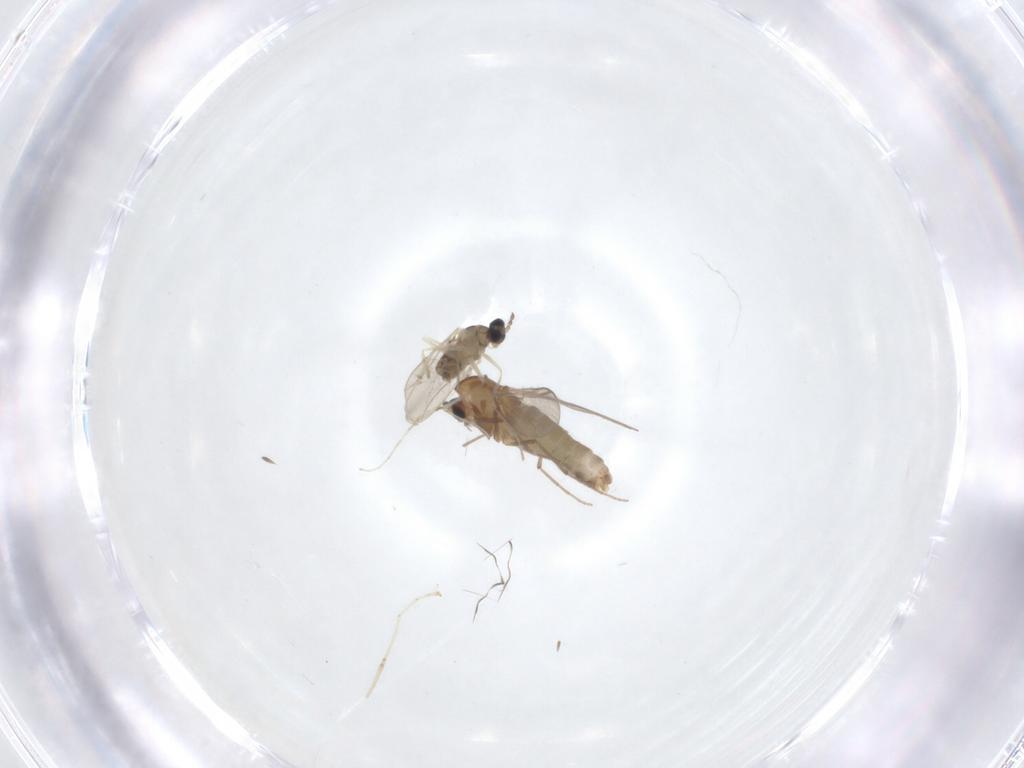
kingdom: Animalia
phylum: Arthropoda
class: Insecta
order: Diptera
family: Chironomidae
